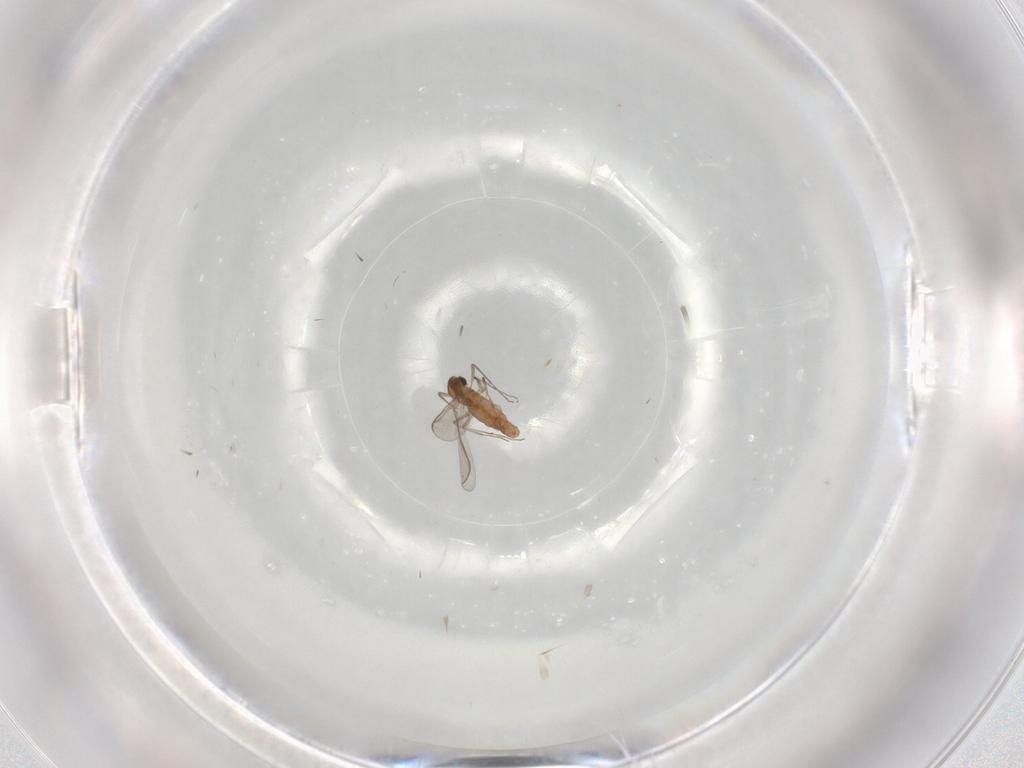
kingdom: Animalia
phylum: Arthropoda
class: Insecta
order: Diptera
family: Chironomidae
